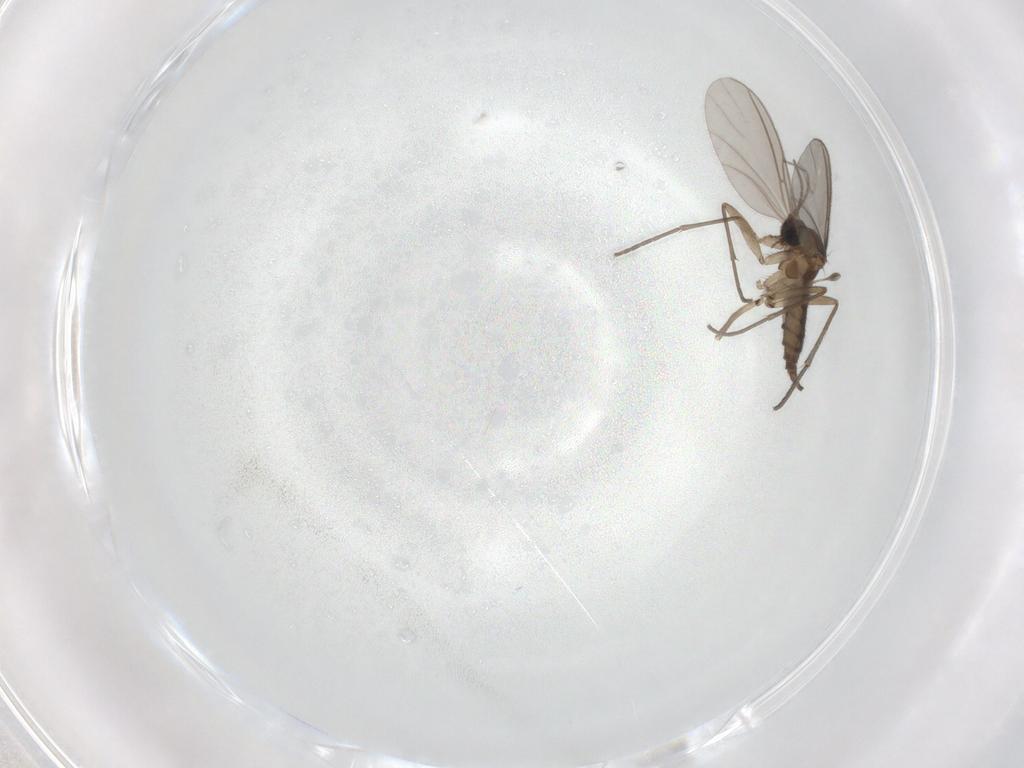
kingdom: Animalia
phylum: Arthropoda
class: Insecta
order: Diptera
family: Sciaridae
